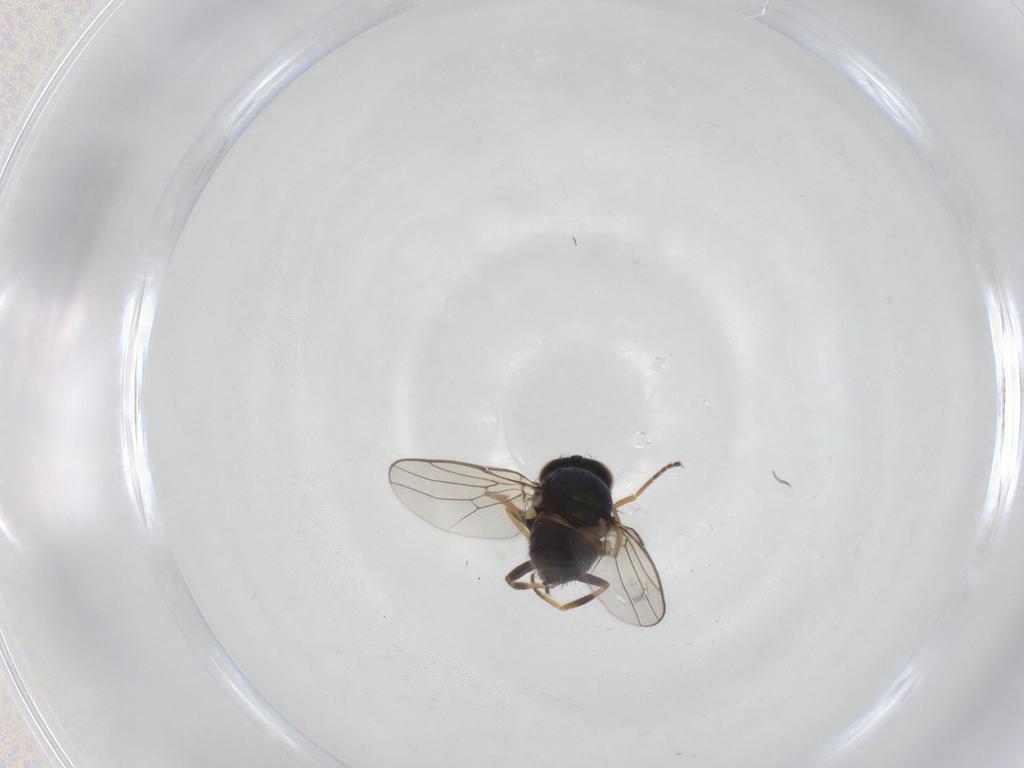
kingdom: Animalia
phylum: Arthropoda
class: Insecta
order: Diptera
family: Chloropidae
